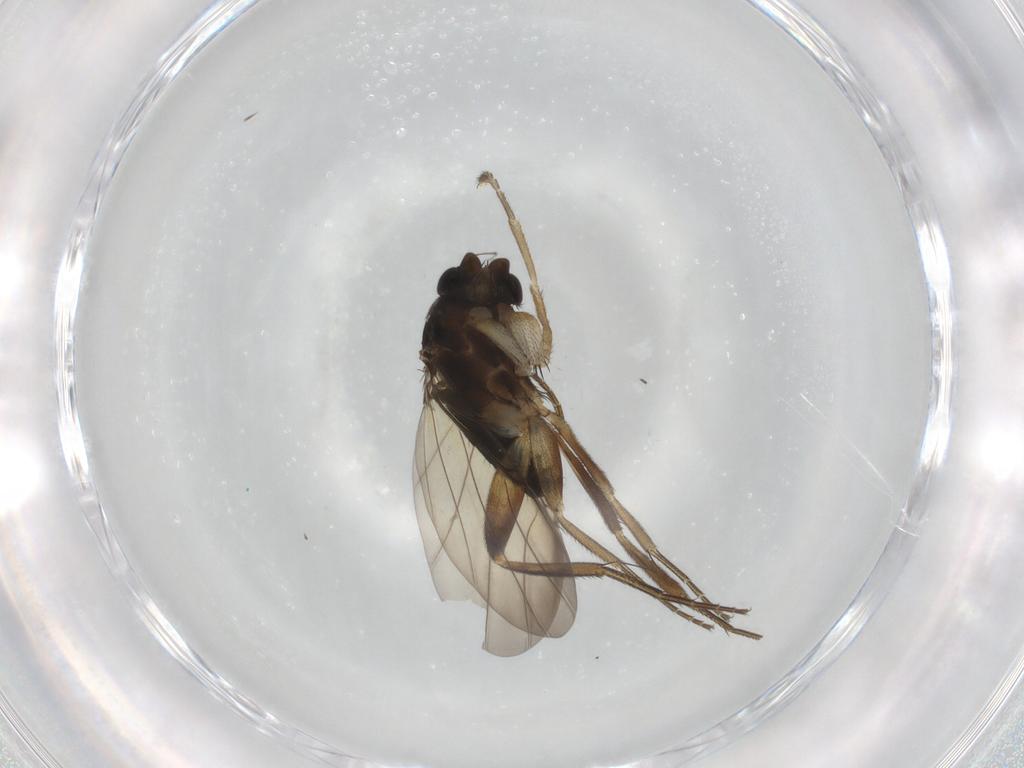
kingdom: Animalia
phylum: Arthropoda
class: Insecta
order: Diptera
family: Phoridae
